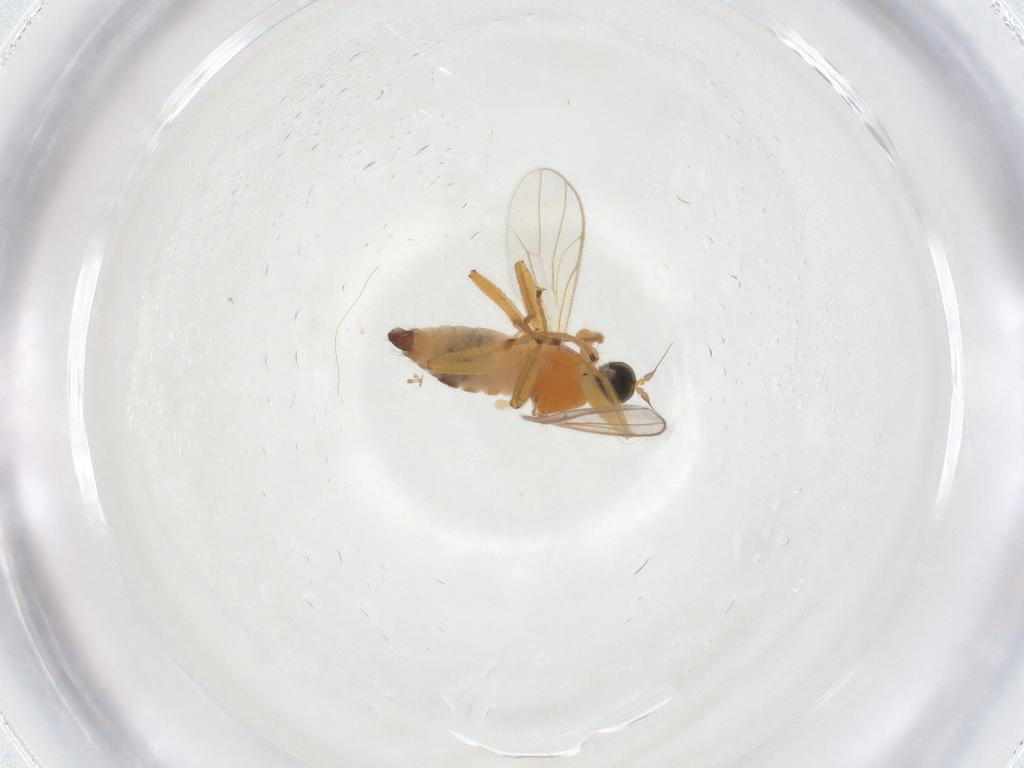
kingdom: Animalia
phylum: Arthropoda
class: Insecta
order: Diptera
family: Hybotidae
